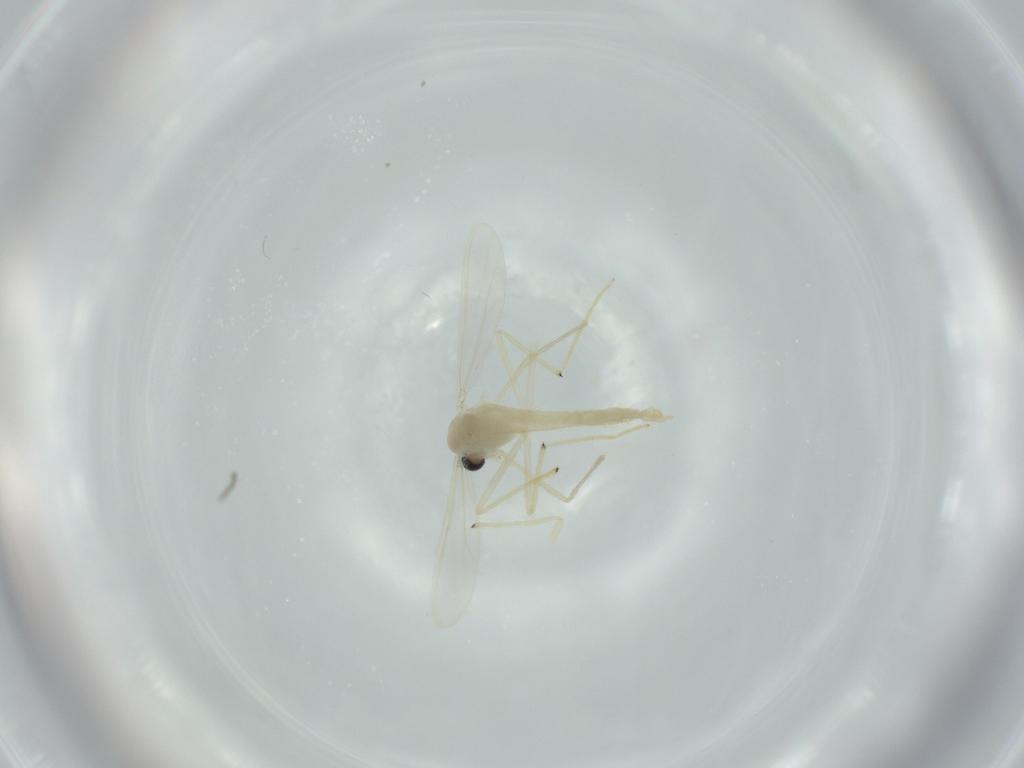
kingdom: Animalia
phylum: Arthropoda
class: Insecta
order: Diptera
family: Chironomidae
